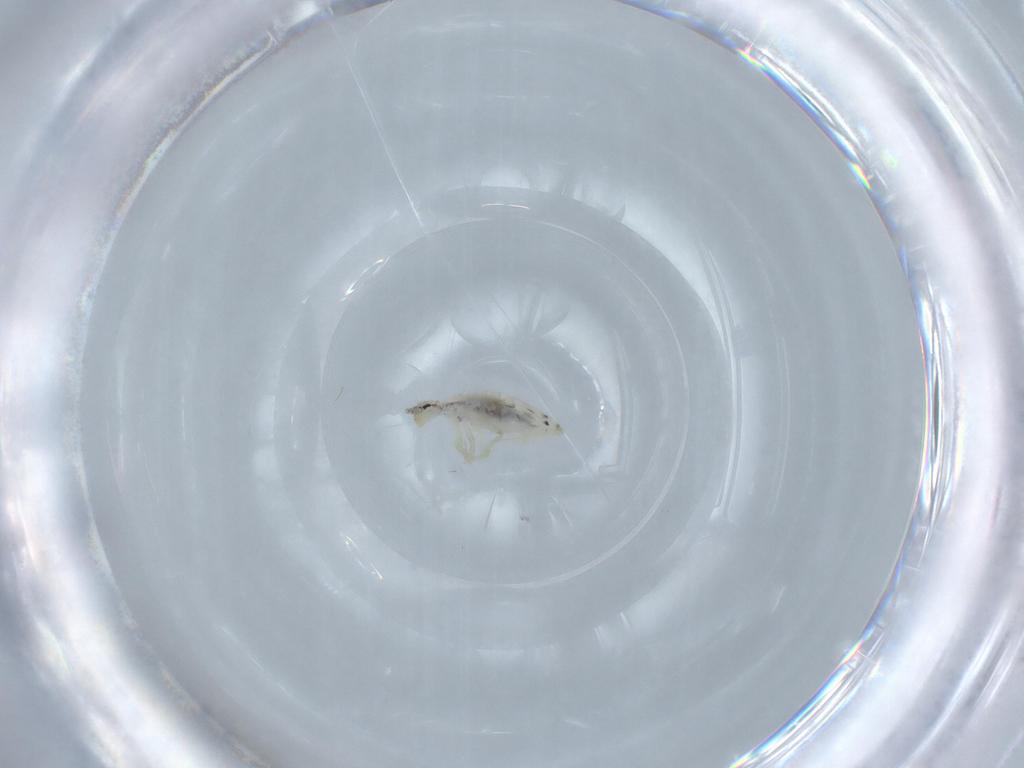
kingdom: Animalia
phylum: Arthropoda
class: Collembola
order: Entomobryomorpha
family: Entomobryidae
